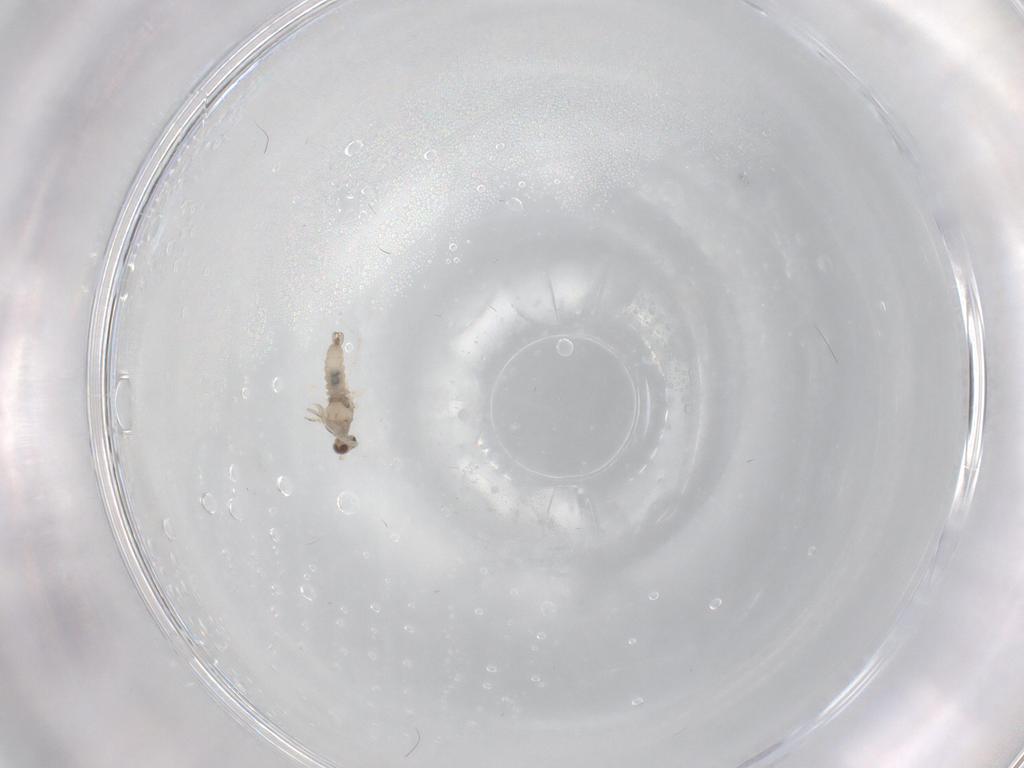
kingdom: Animalia
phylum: Arthropoda
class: Insecta
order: Diptera
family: Cecidomyiidae
